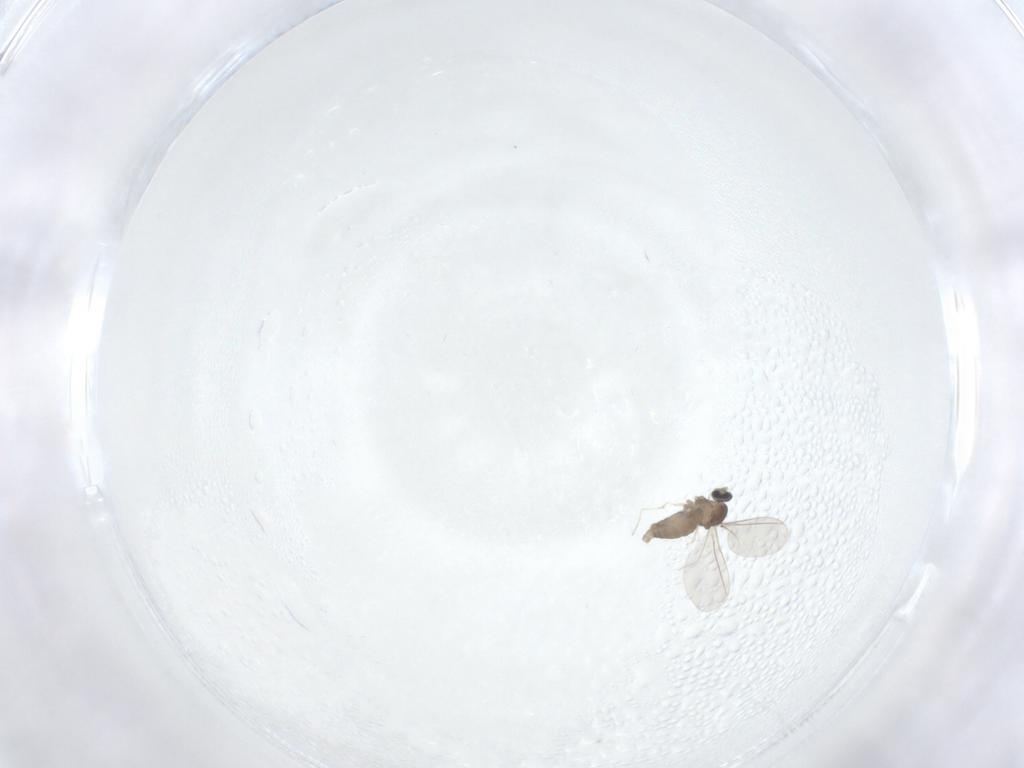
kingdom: Animalia
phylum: Arthropoda
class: Insecta
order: Diptera
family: Cecidomyiidae
